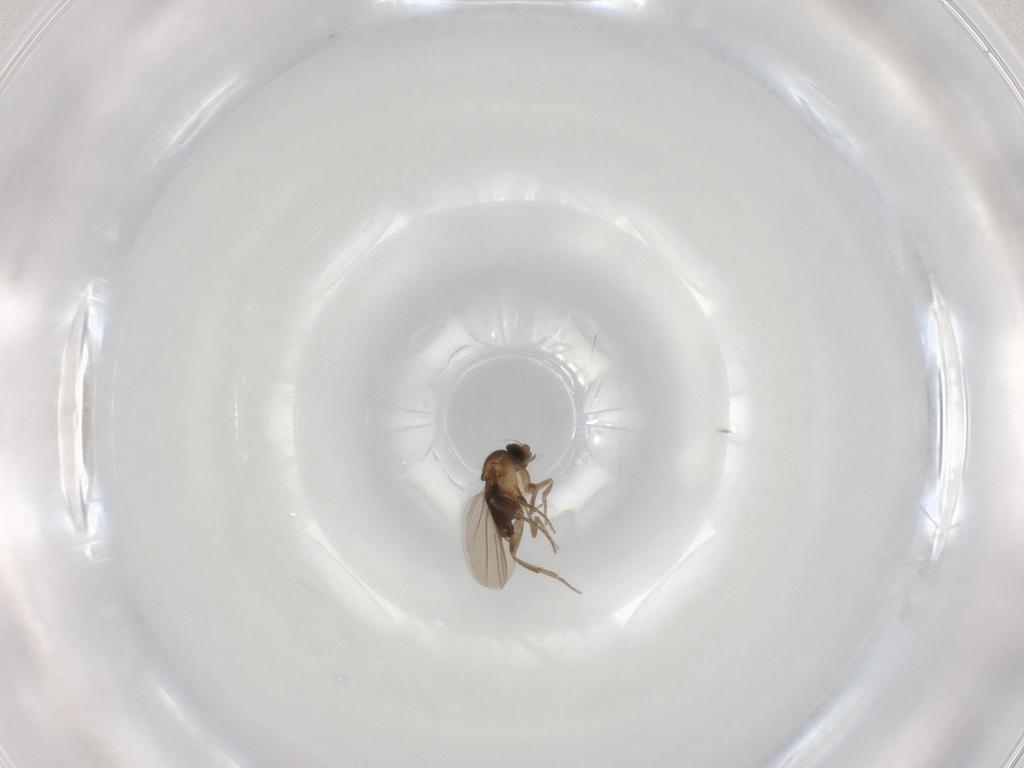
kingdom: Animalia
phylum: Arthropoda
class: Insecta
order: Diptera
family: Phoridae
